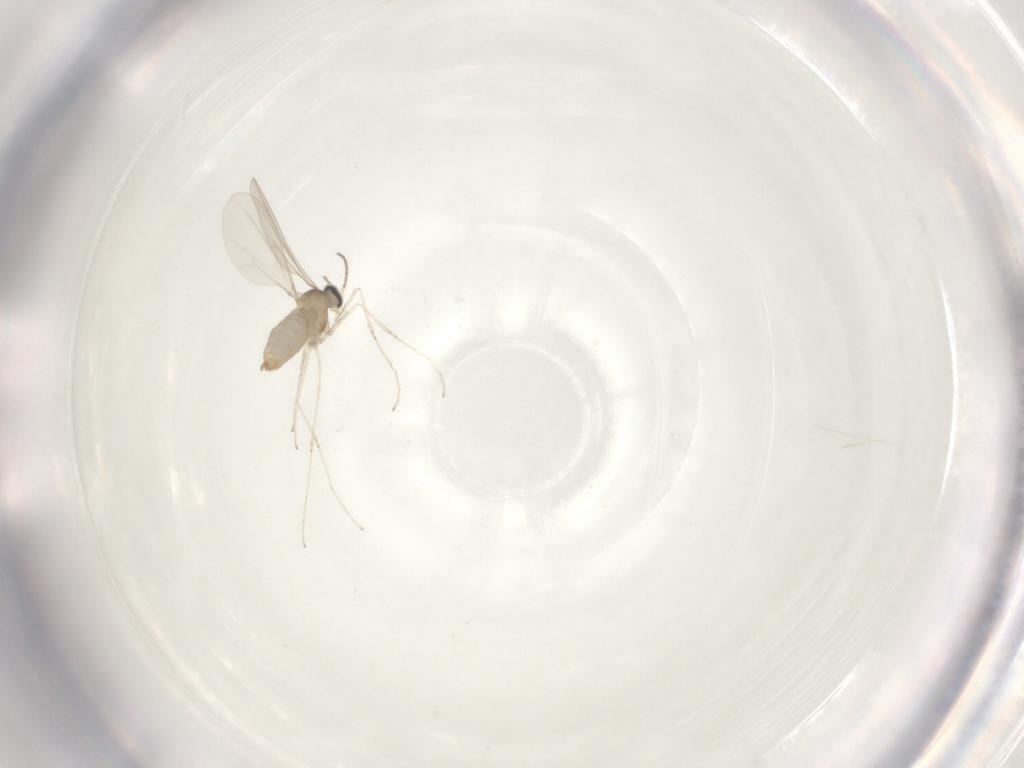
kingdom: Animalia
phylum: Arthropoda
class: Insecta
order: Diptera
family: Cecidomyiidae
